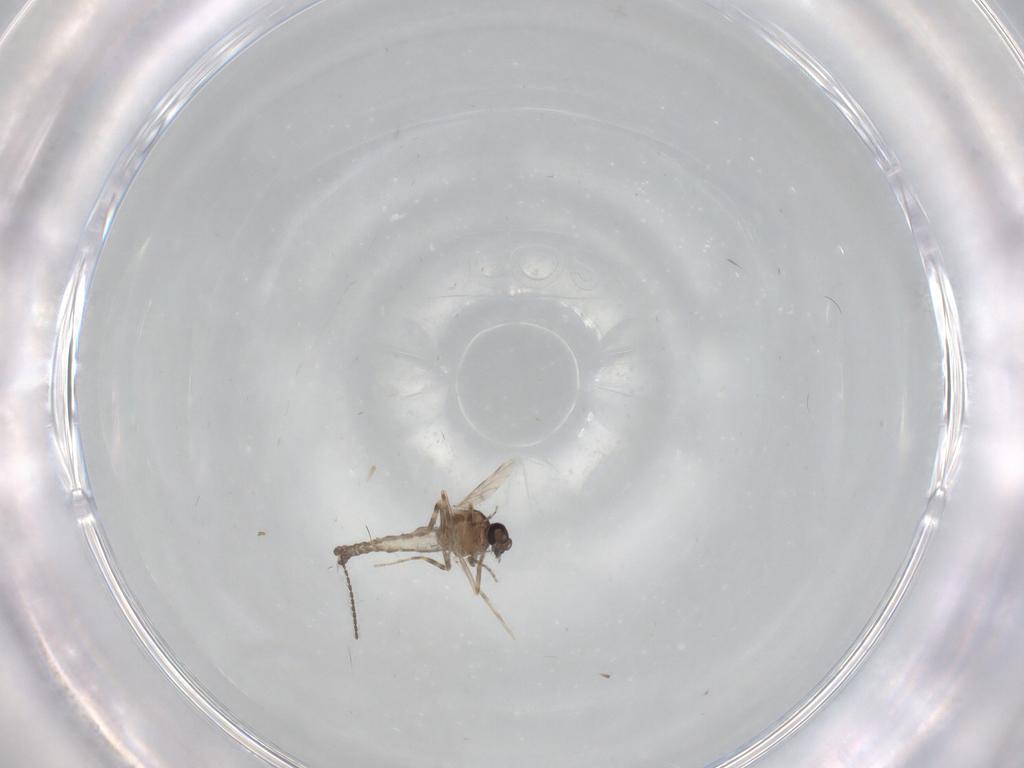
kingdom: Animalia
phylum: Arthropoda
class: Insecta
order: Diptera
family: Ceratopogonidae
